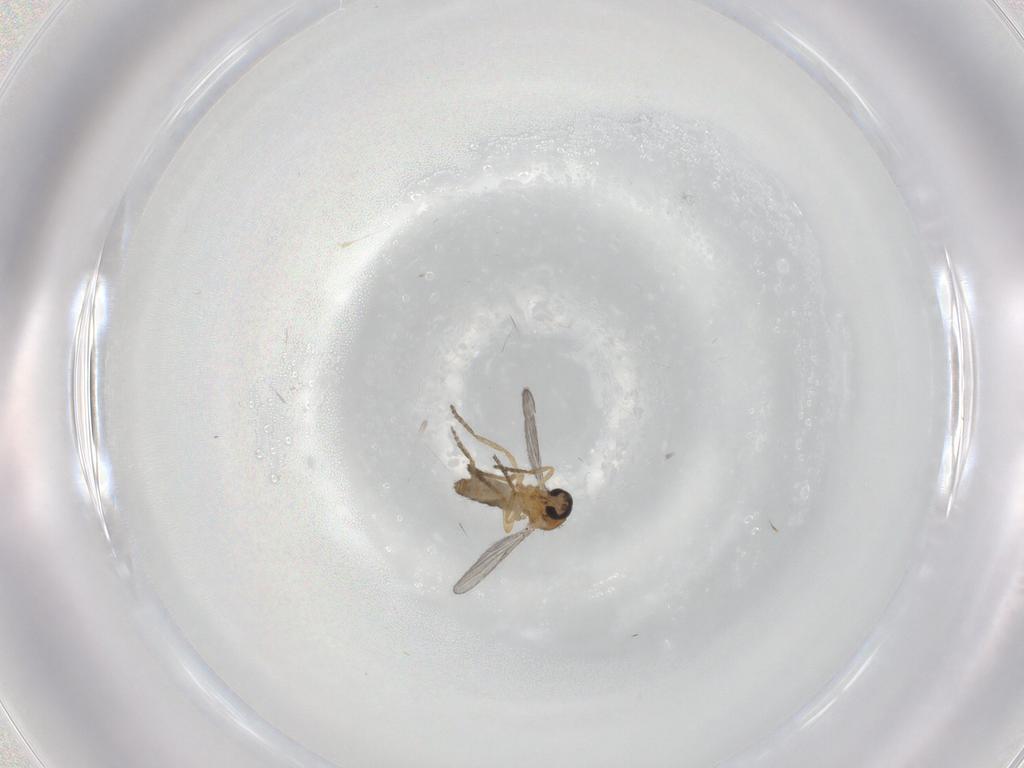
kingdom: Animalia
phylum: Arthropoda
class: Insecta
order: Diptera
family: Ceratopogonidae
